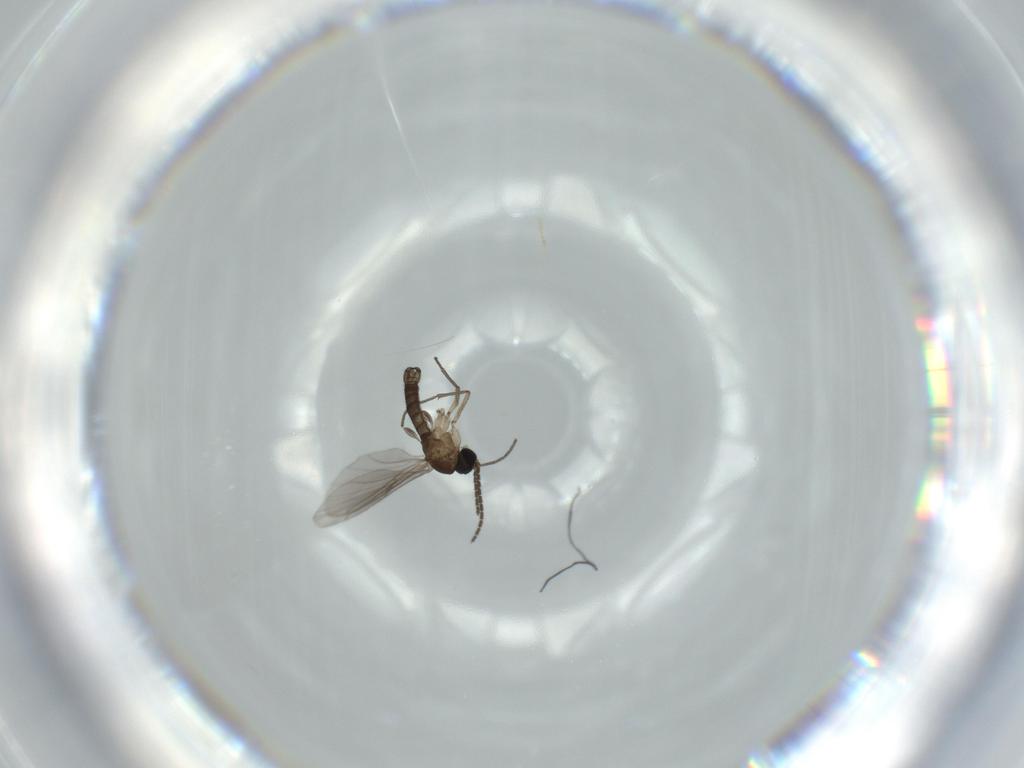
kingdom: Animalia
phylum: Arthropoda
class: Insecta
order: Diptera
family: Sciaridae
